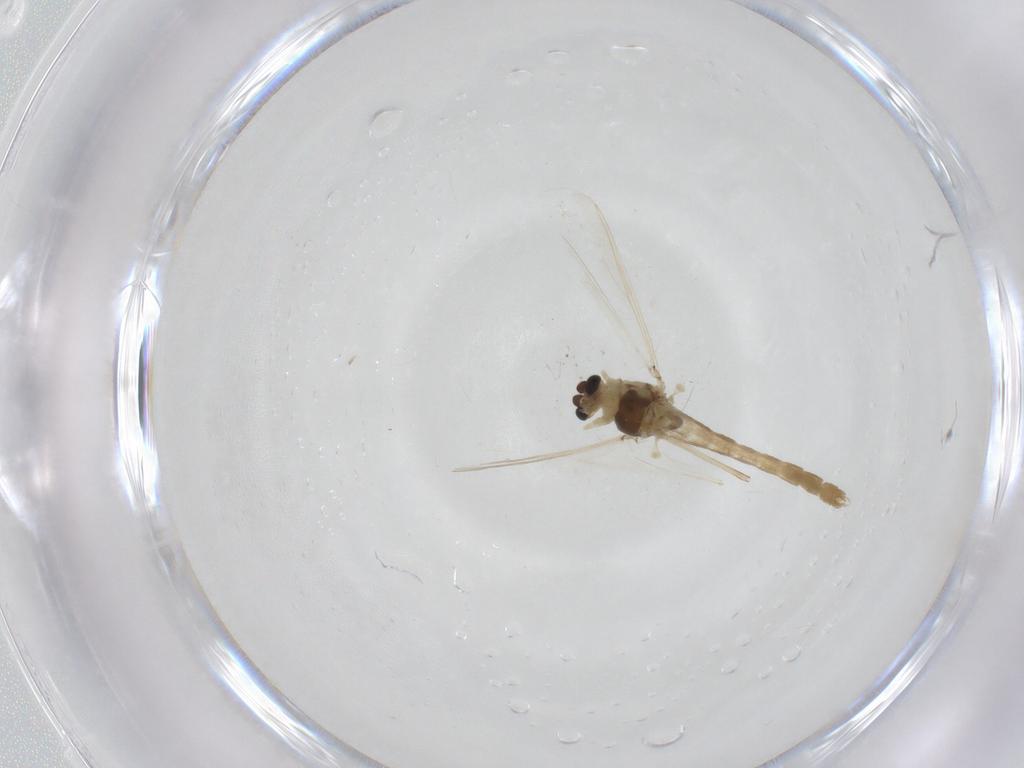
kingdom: Animalia
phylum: Arthropoda
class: Insecta
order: Diptera
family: Chironomidae
